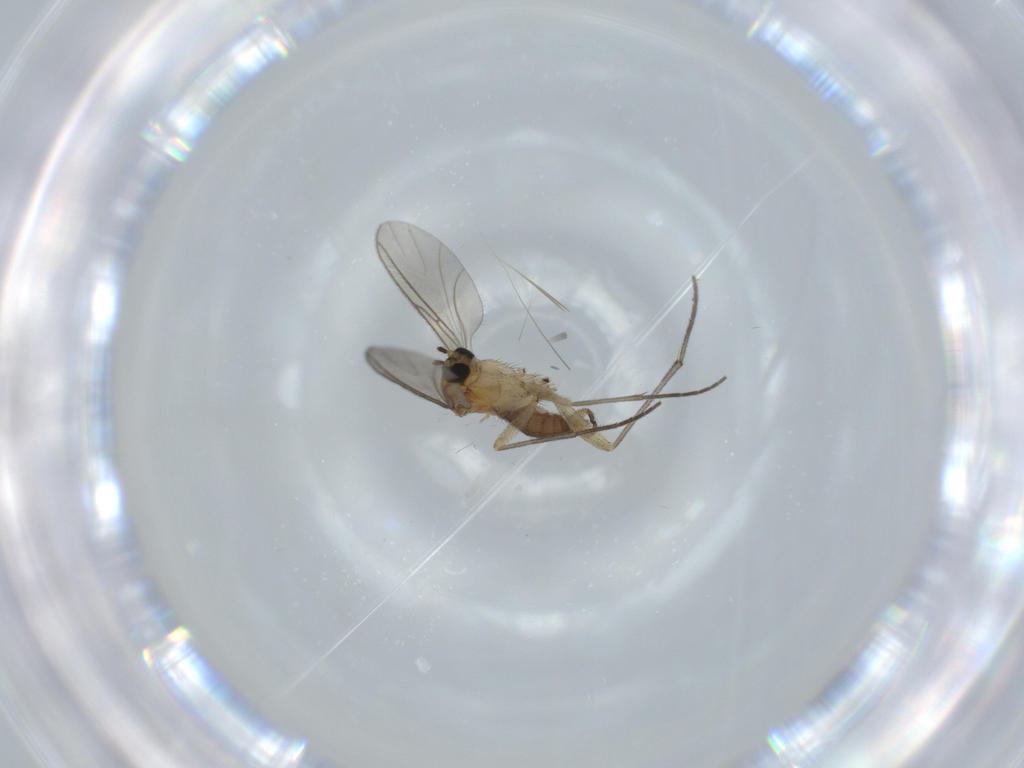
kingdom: Animalia
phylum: Arthropoda
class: Insecta
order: Diptera
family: Sciaridae
